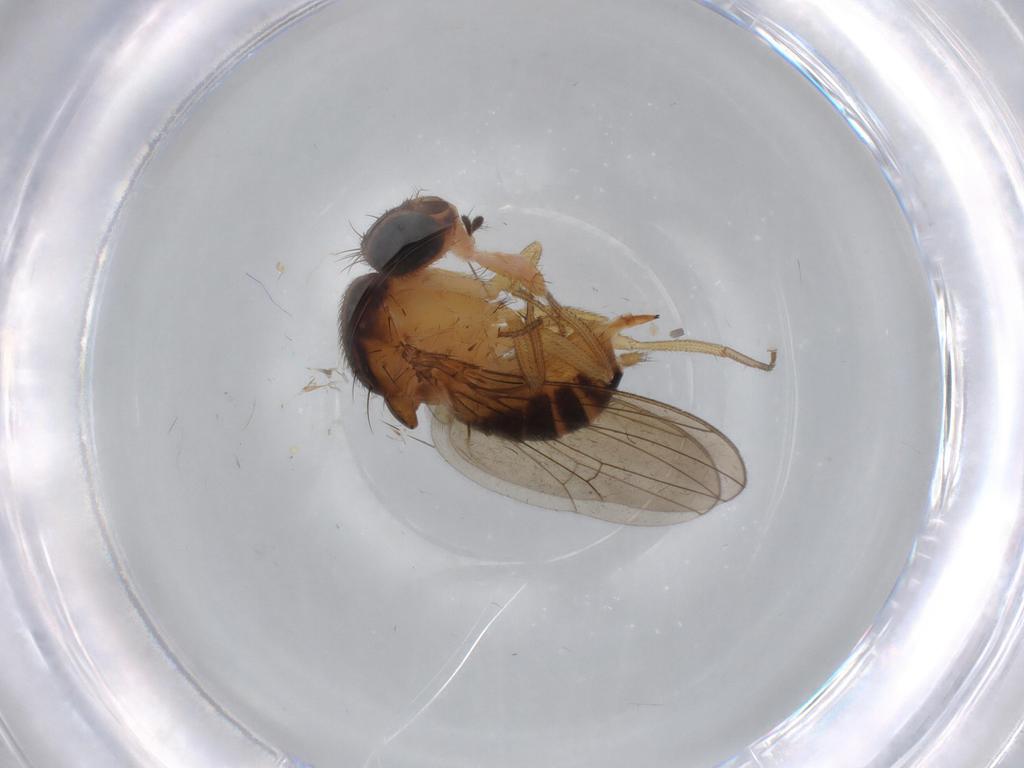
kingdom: Animalia
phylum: Arthropoda
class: Insecta
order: Diptera
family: Drosophilidae
